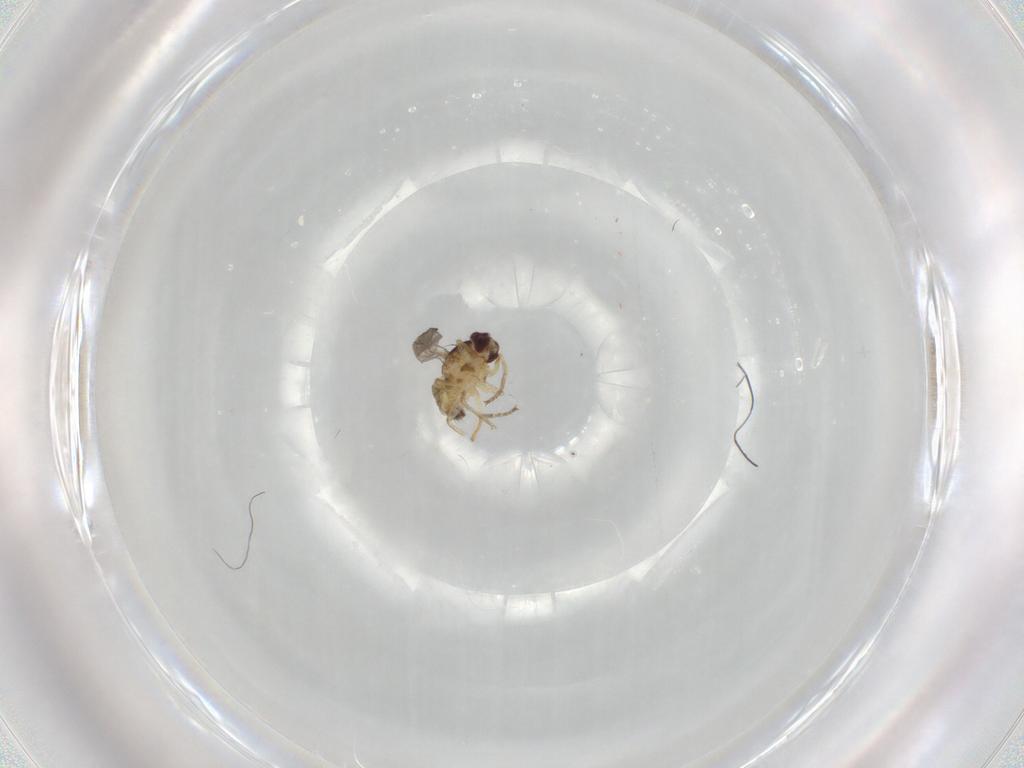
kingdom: Animalia
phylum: Arthropoda
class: Insecta
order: Diptera
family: Agromyzidae
